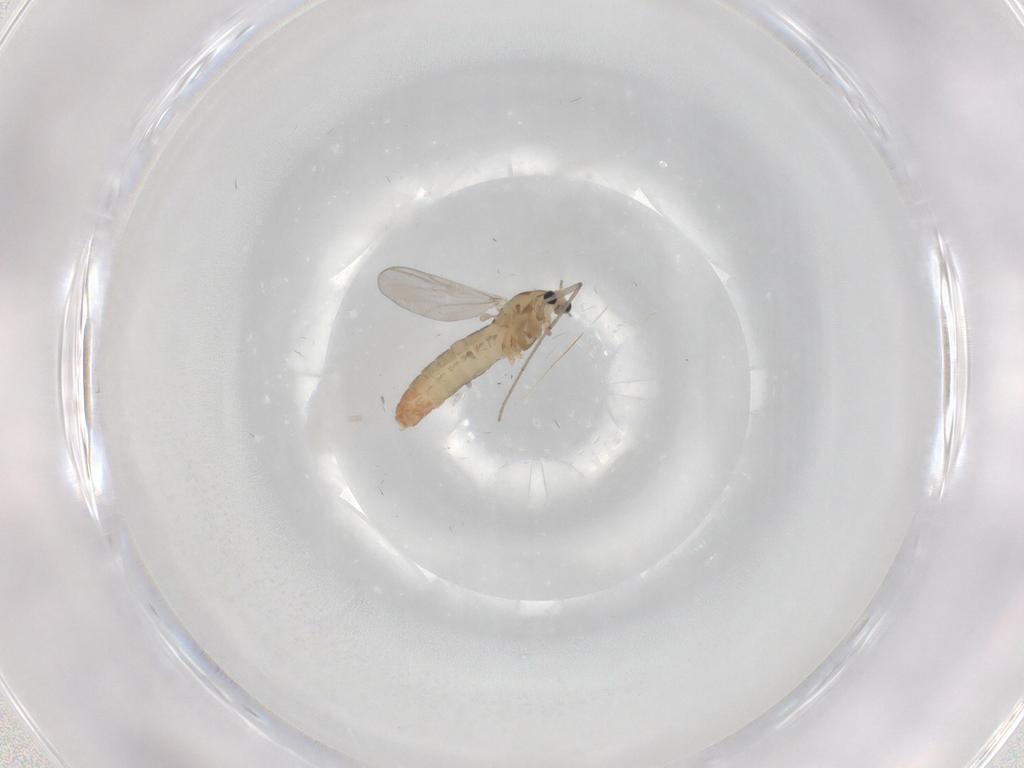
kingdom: Animalia
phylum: Arthropoda
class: Insecta
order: Diptera
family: Chironomidae
